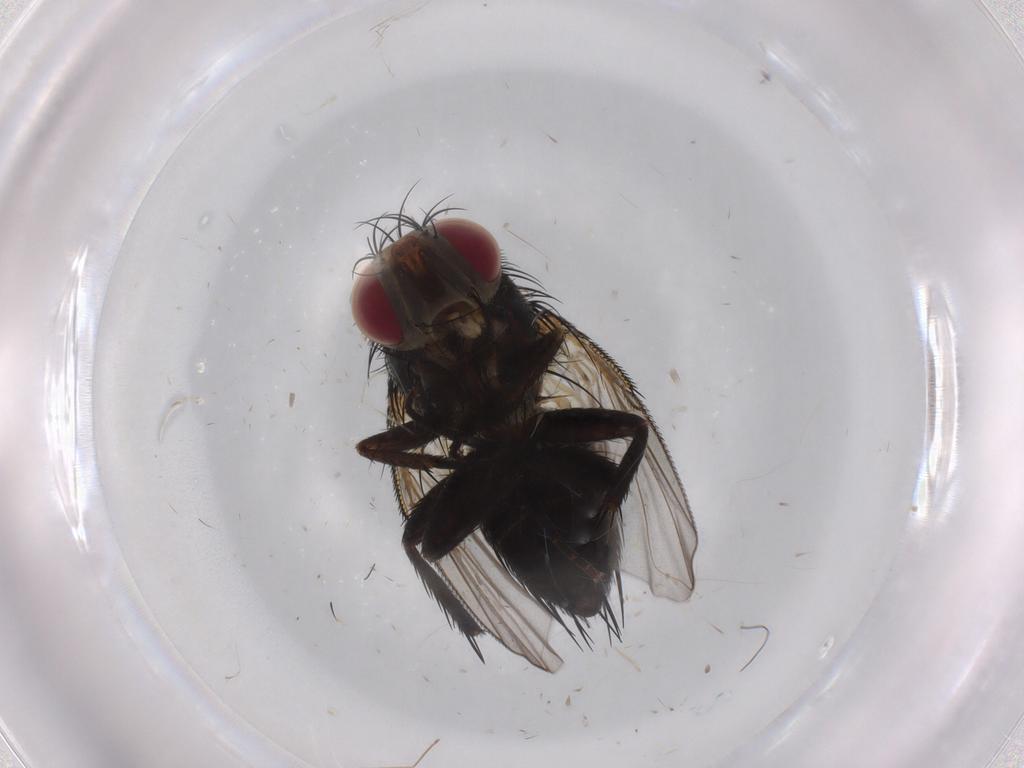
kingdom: Animalia
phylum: Arthropoda
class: Insecta
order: Diptera
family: Tachinidae
